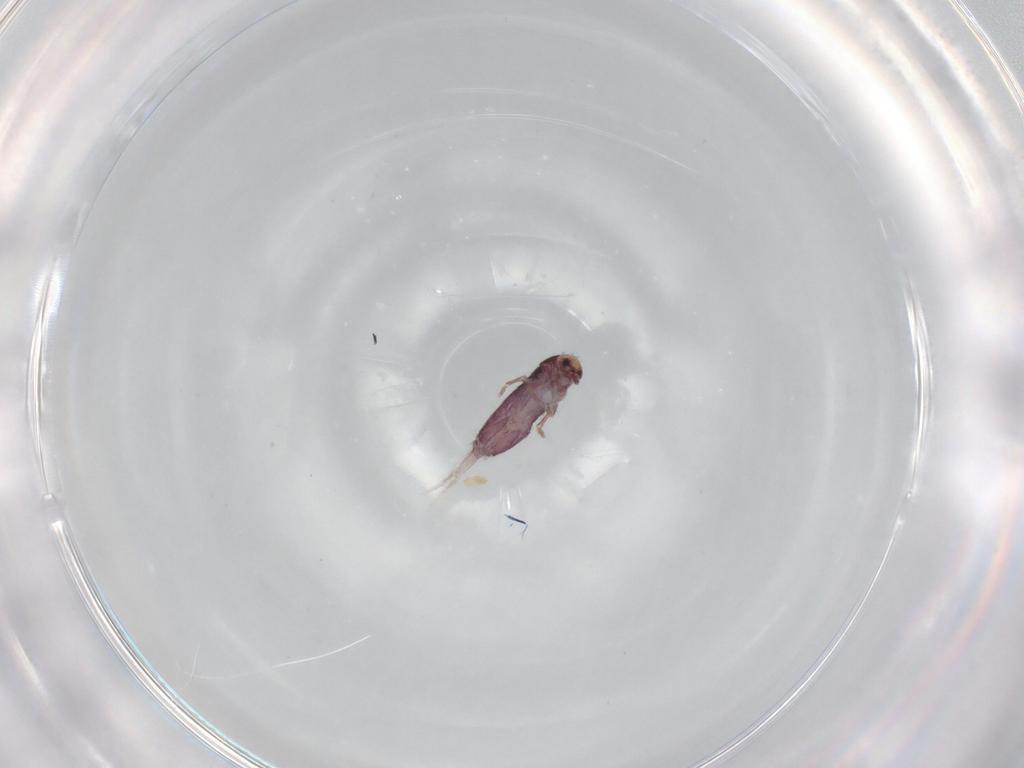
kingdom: Animalia
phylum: Arthropoda
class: Collembola
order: Entomobryomorpha
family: Entomobryidae
